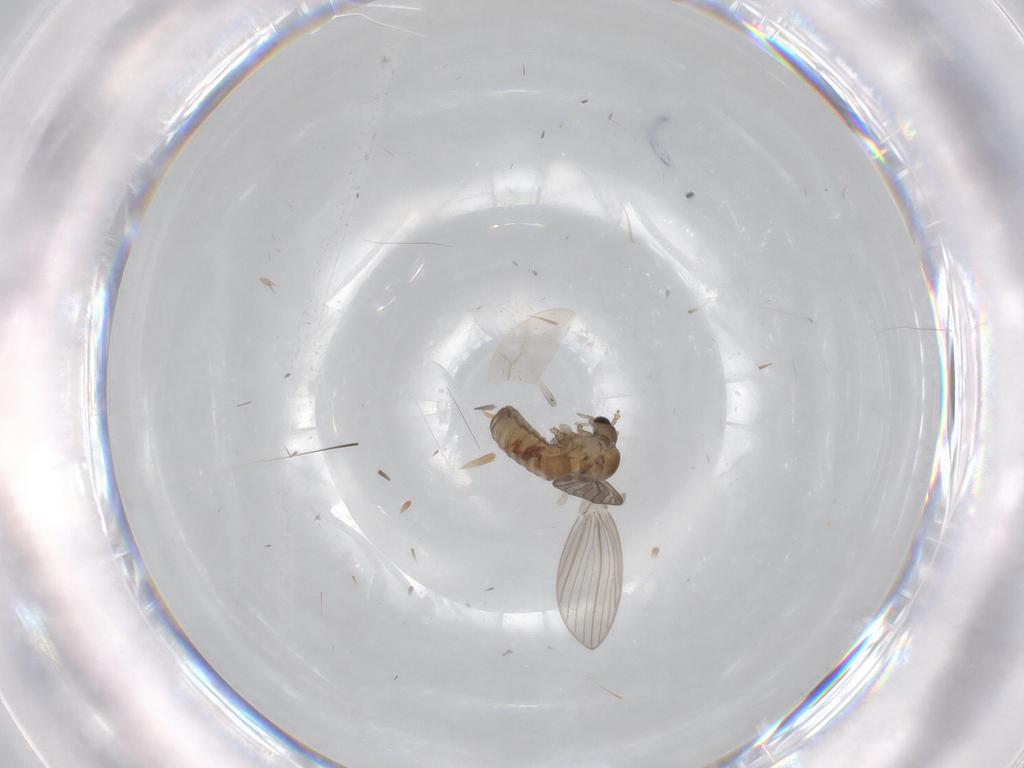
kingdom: Animalia
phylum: Arthropoda
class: Insecta
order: Diptera
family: Psychodidae
